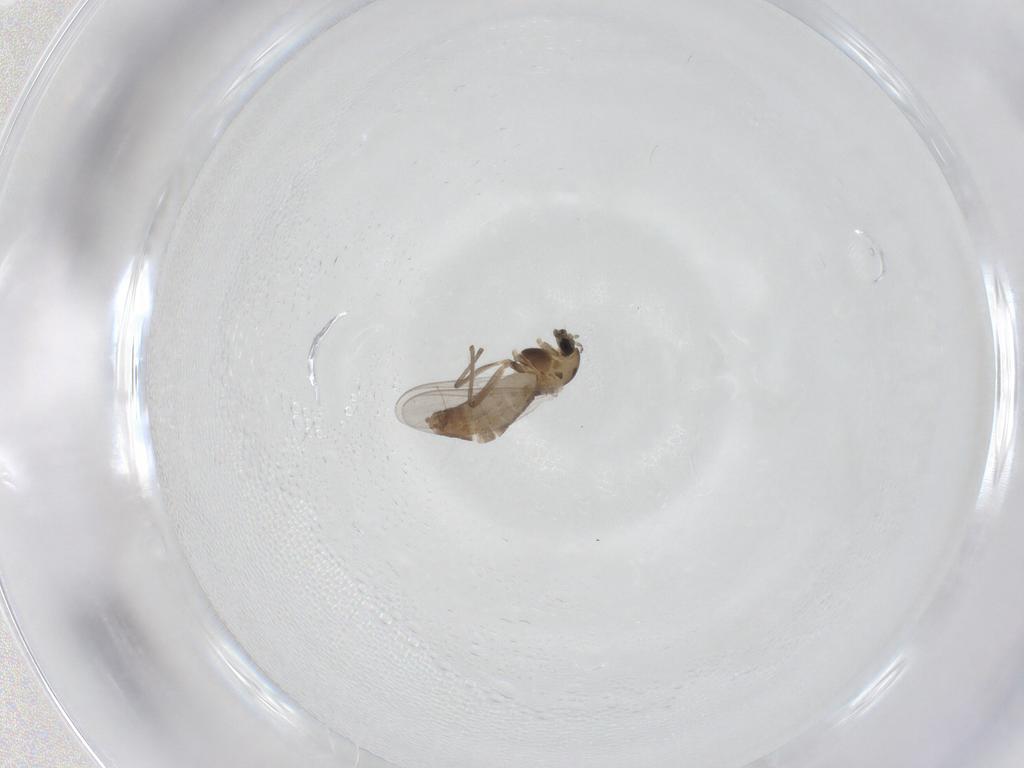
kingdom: Animalia
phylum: Arthropoda
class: Insecta
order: Diptera
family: Chironomidae
